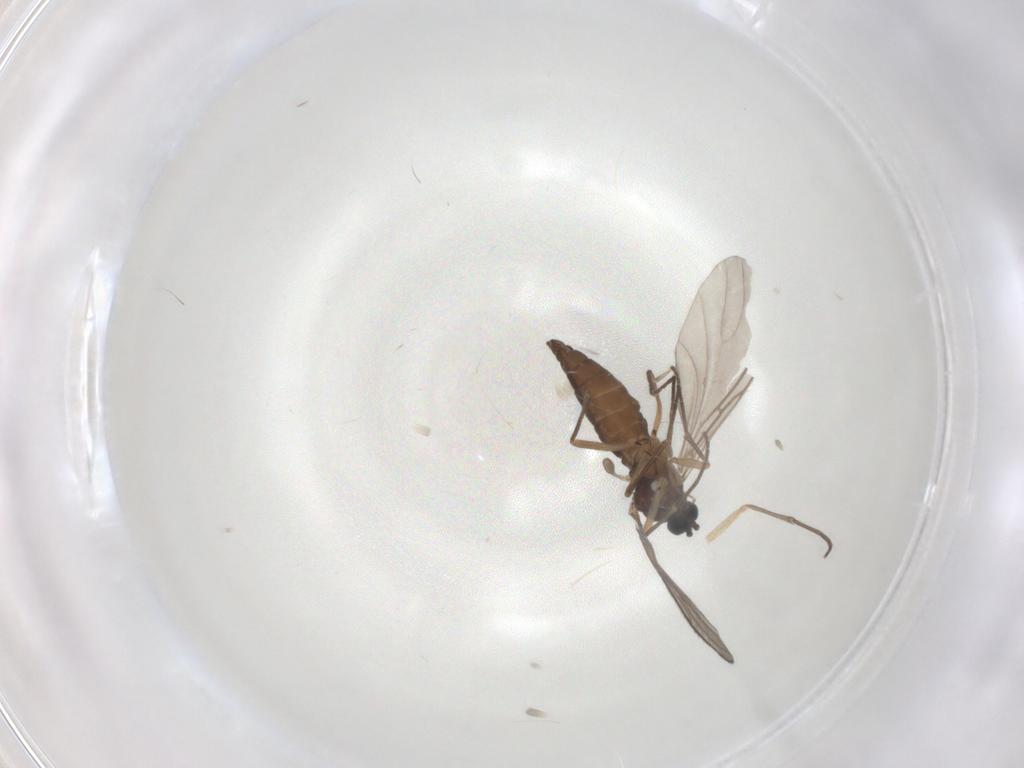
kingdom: Animalia
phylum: Arthropoda
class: Insecta
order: Diptera
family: Sciaridae
